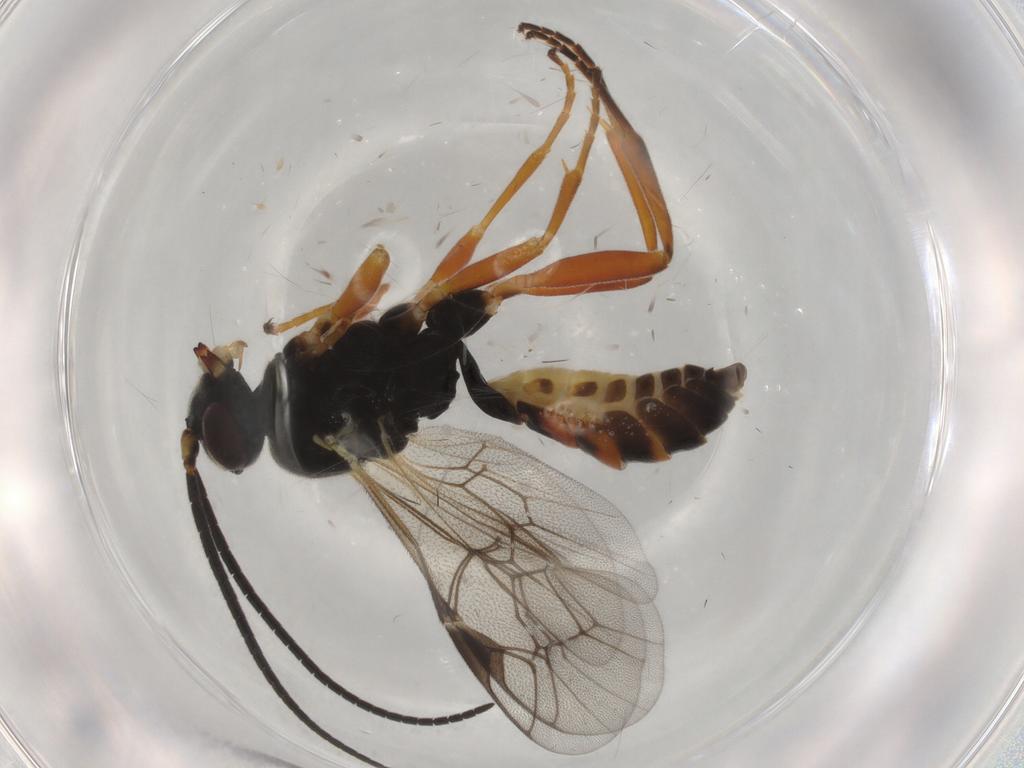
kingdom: Animalia
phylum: Arthropoda
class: Insecta
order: Hymenoptera
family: Ichneumonidae
